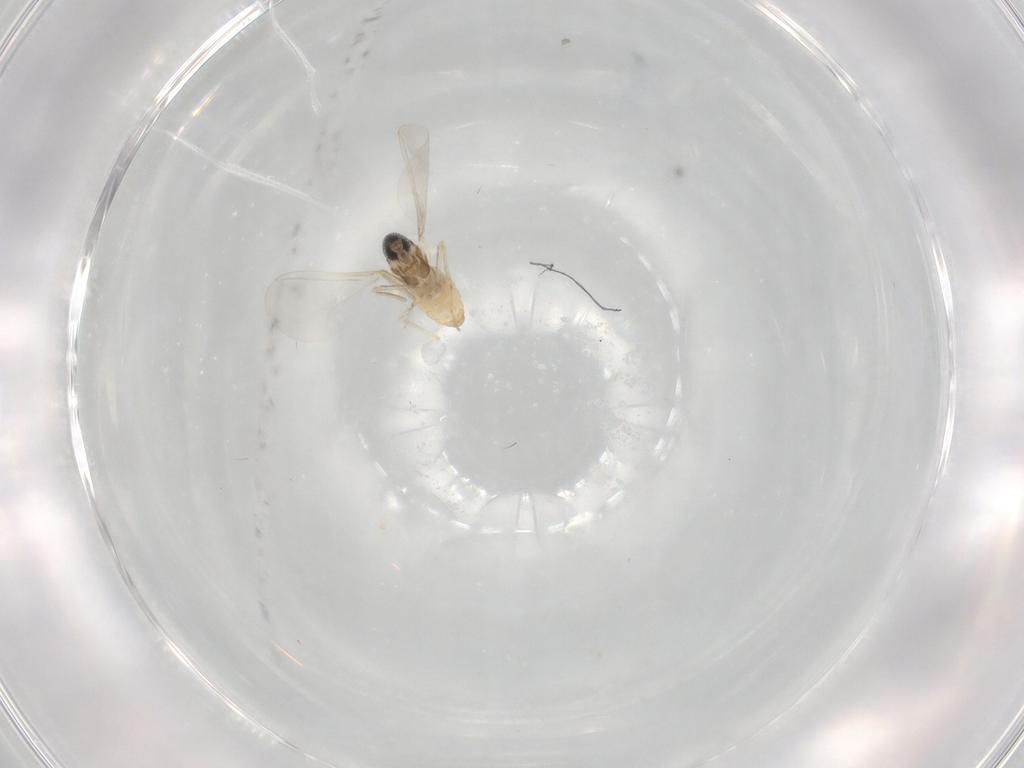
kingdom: Animalia
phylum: Arthropoda
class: Insecta
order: Diptera
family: Cecidomyiidae
